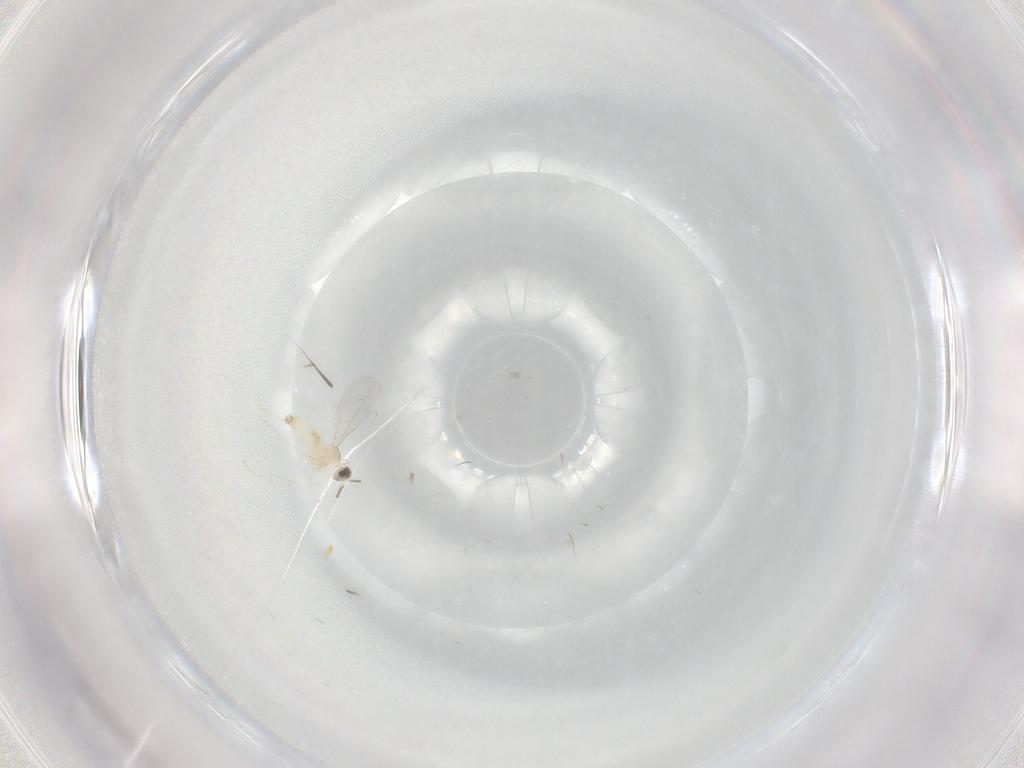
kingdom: Animalia
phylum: Arthropoda
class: Insecta
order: Diptera
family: Cecidomyiidae
